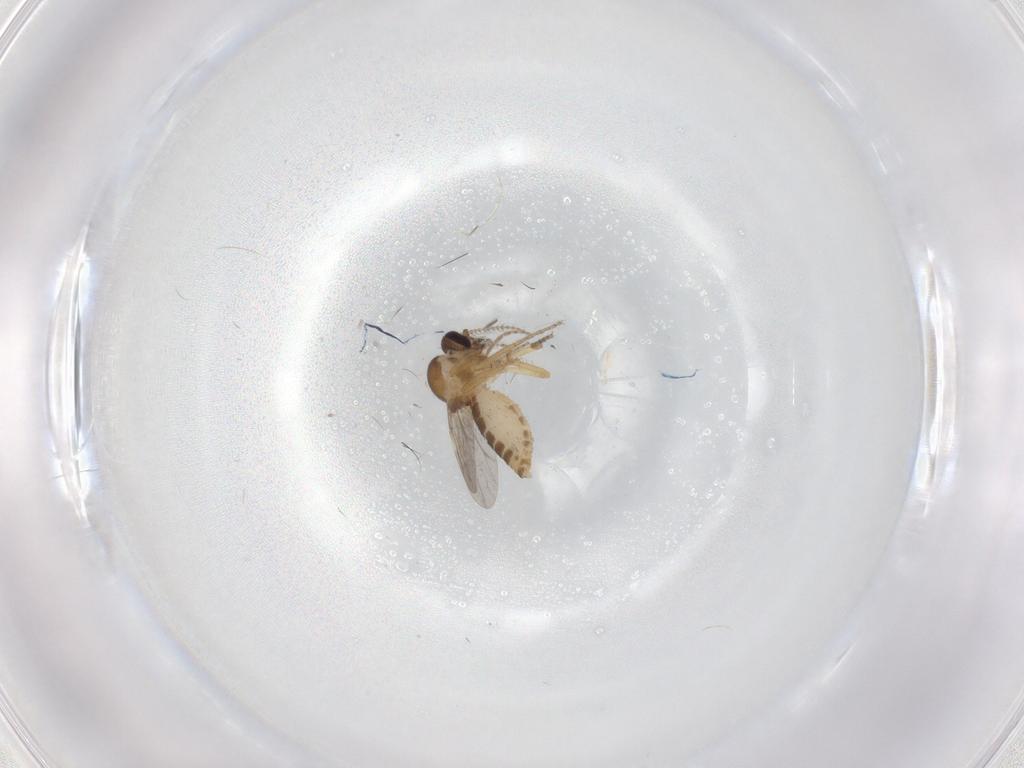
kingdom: Animalia
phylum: Arthropoda
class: Insecta
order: Diptera
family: Ceratopogonidae
